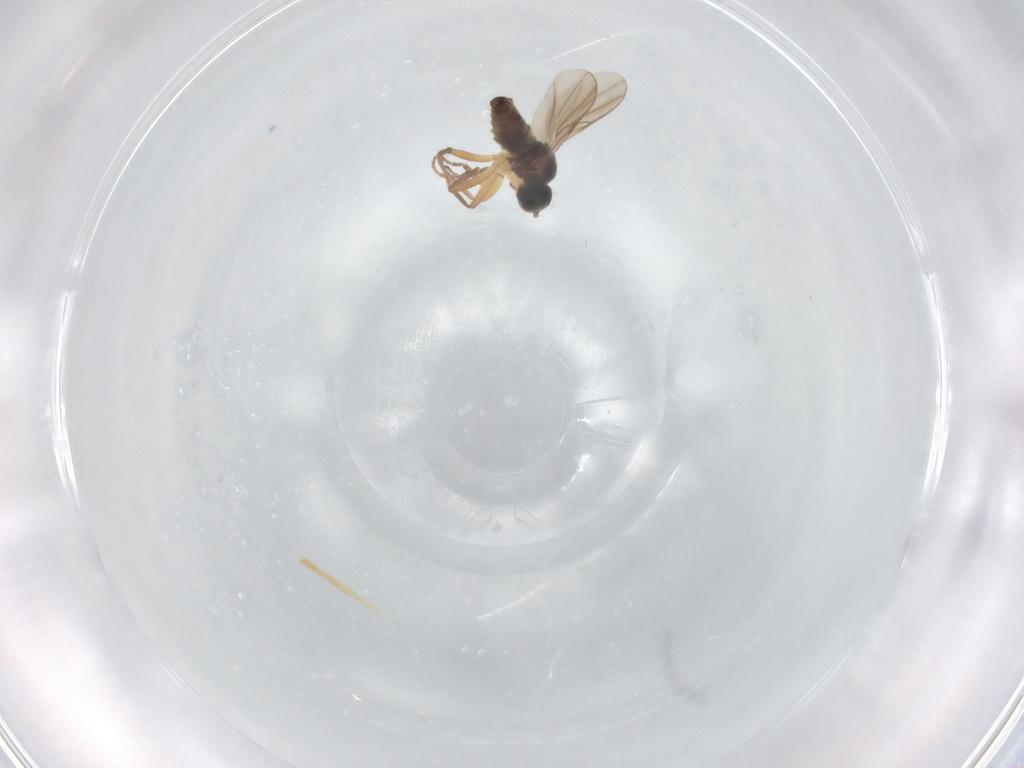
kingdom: Animalia
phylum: Arthropoda
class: Insecta
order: Diptera
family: Hybotidae
